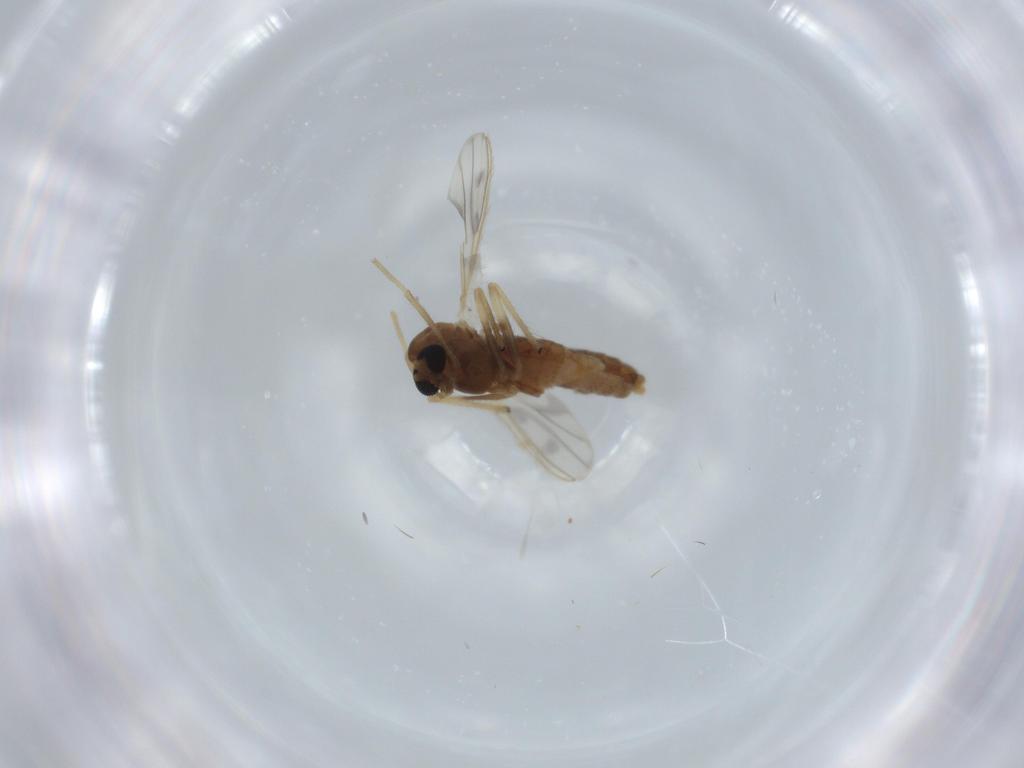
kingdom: Animalia
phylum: Arthropoda
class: Insecta
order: Diptera
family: Chironomidae
